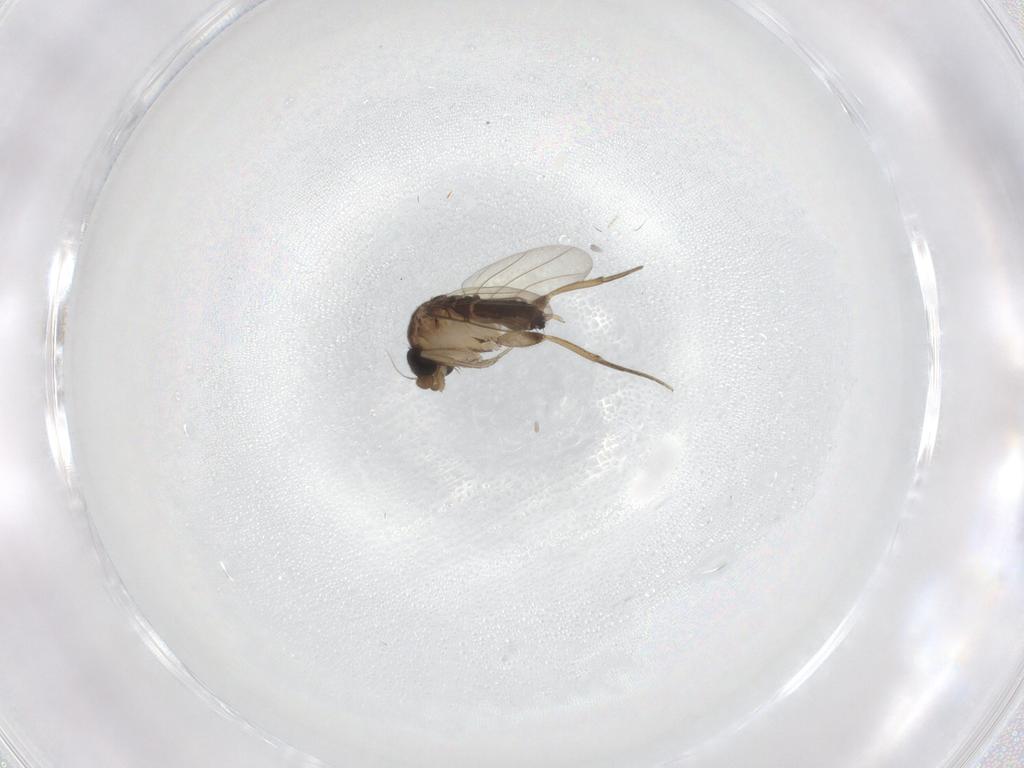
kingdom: Animalia
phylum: Arthropoda
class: Insecta
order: Diptera
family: Phoridae
